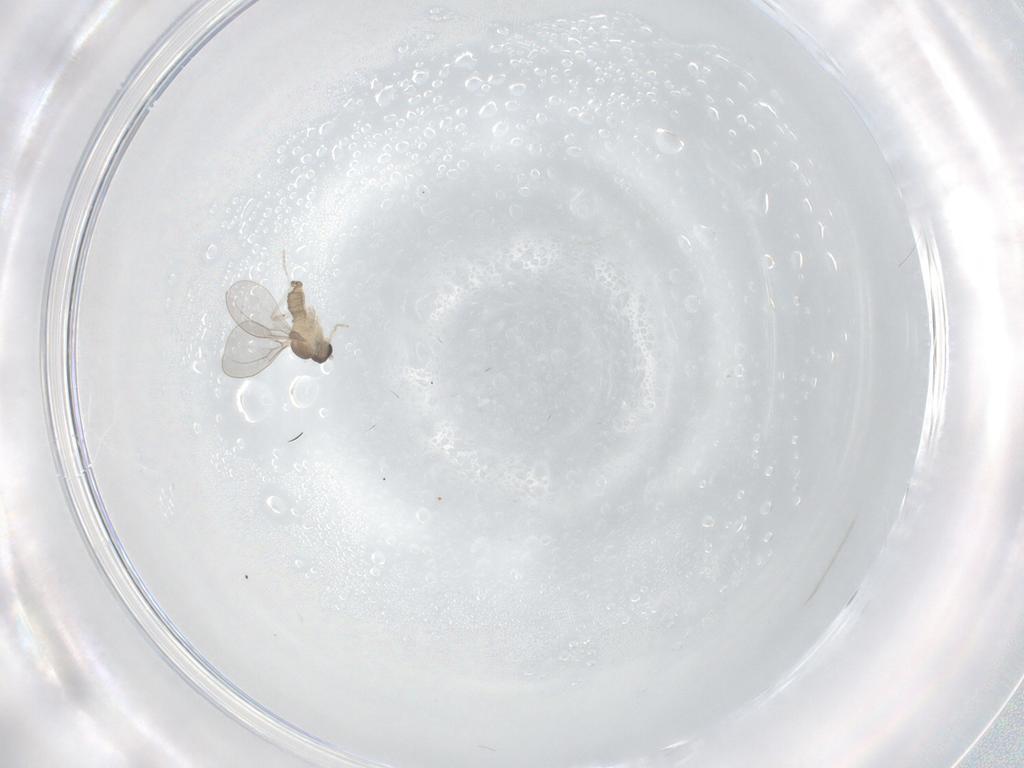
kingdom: Animalia
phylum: Arthropoda
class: Insecta
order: Diptera
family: Cecidomyiidae
